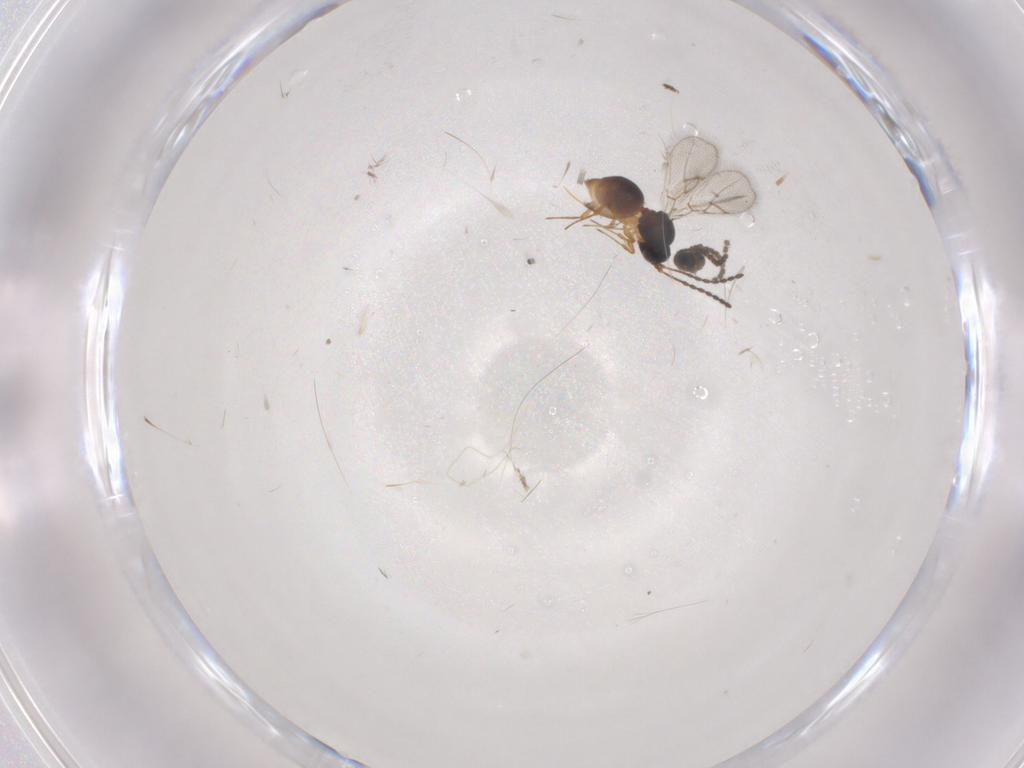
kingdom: Animalia
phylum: Arthropoda
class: Insecta
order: Hymenoptera
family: Figitidae
